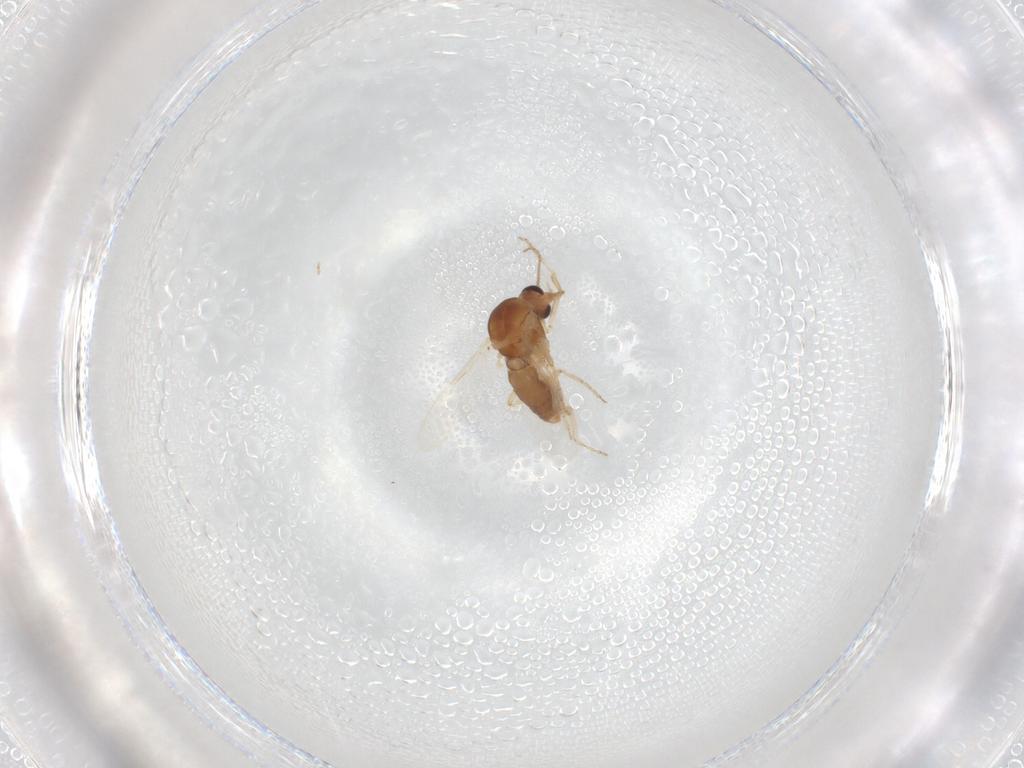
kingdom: Animalia
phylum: Arthropoda
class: Insecta
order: Diptera
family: Ceratopogonidae
